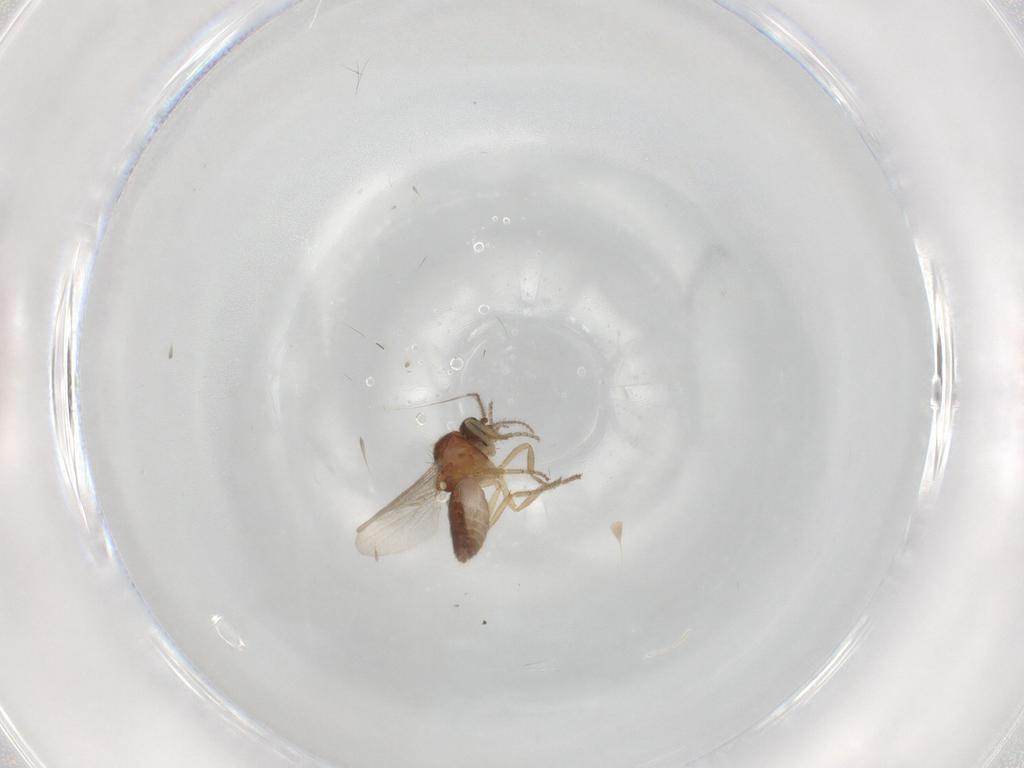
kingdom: Animalia
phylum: Arthropoda
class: Insecta
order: Diptera
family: Ceratopogonidae
